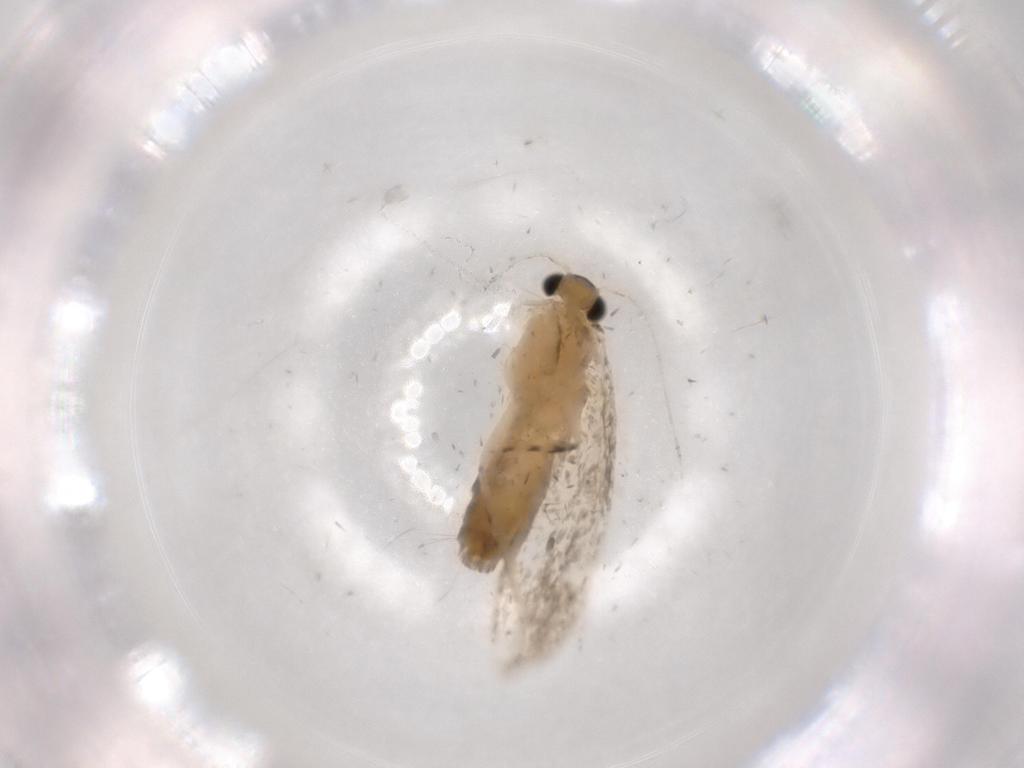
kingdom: Animalia
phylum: Arthropoda
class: Insecta
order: Lepidoptera
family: Tineidae
